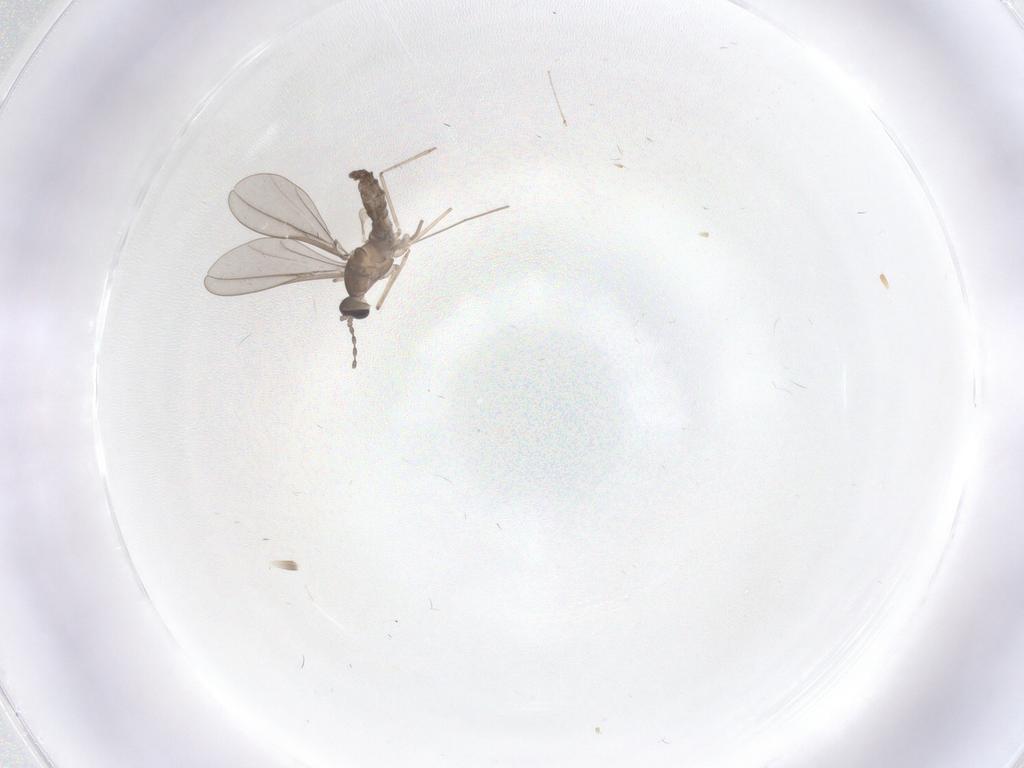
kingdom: Animalia
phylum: Arthropoda
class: Insecta
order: Diptera
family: Cecidomyiidae
